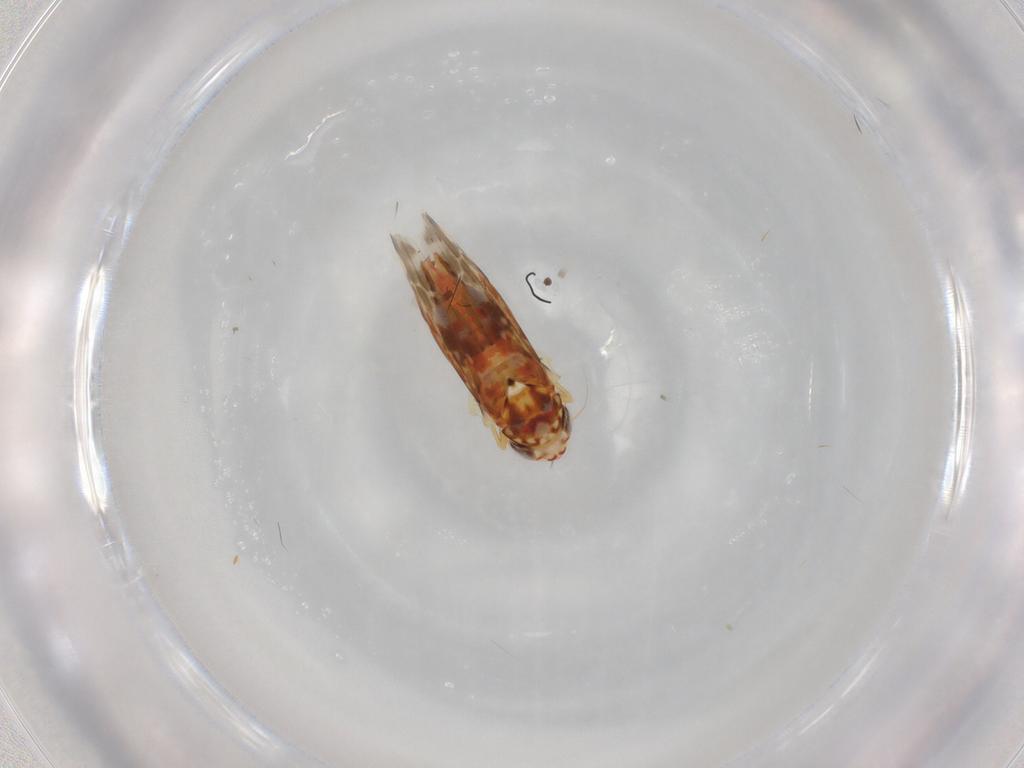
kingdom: Animalia
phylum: Arthropoda
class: Insecta
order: Hemiptera
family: Cicadellidae
